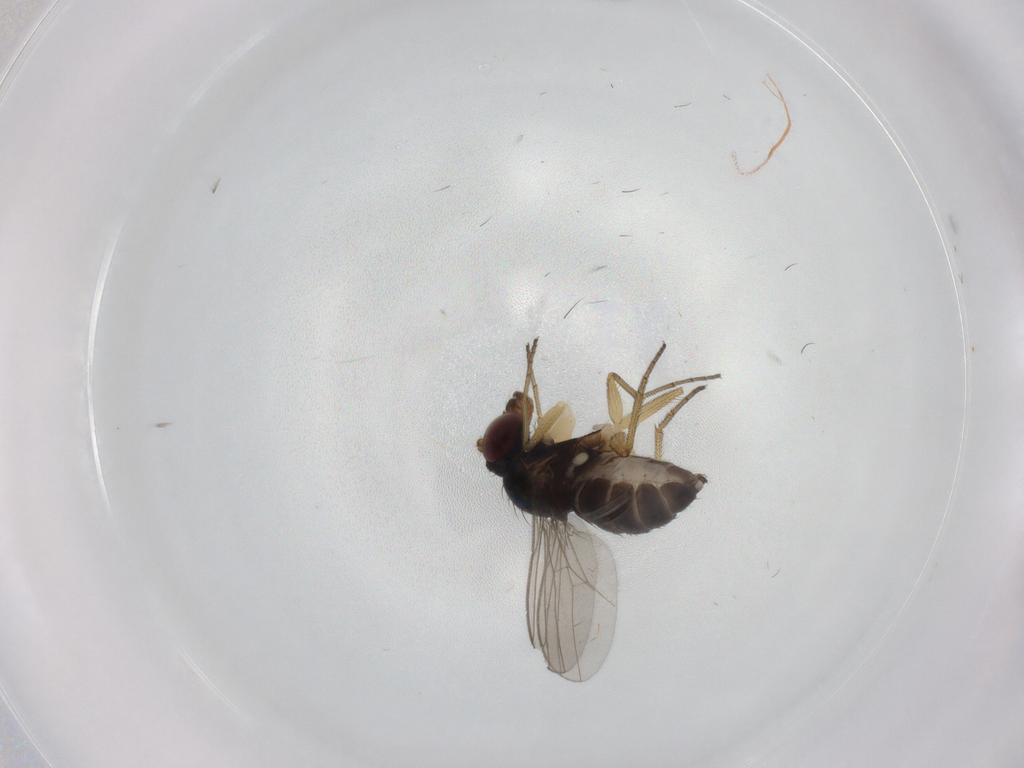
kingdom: Animalia
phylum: Arthropoda
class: Insecta
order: Diptera
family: Dolichopodidae
